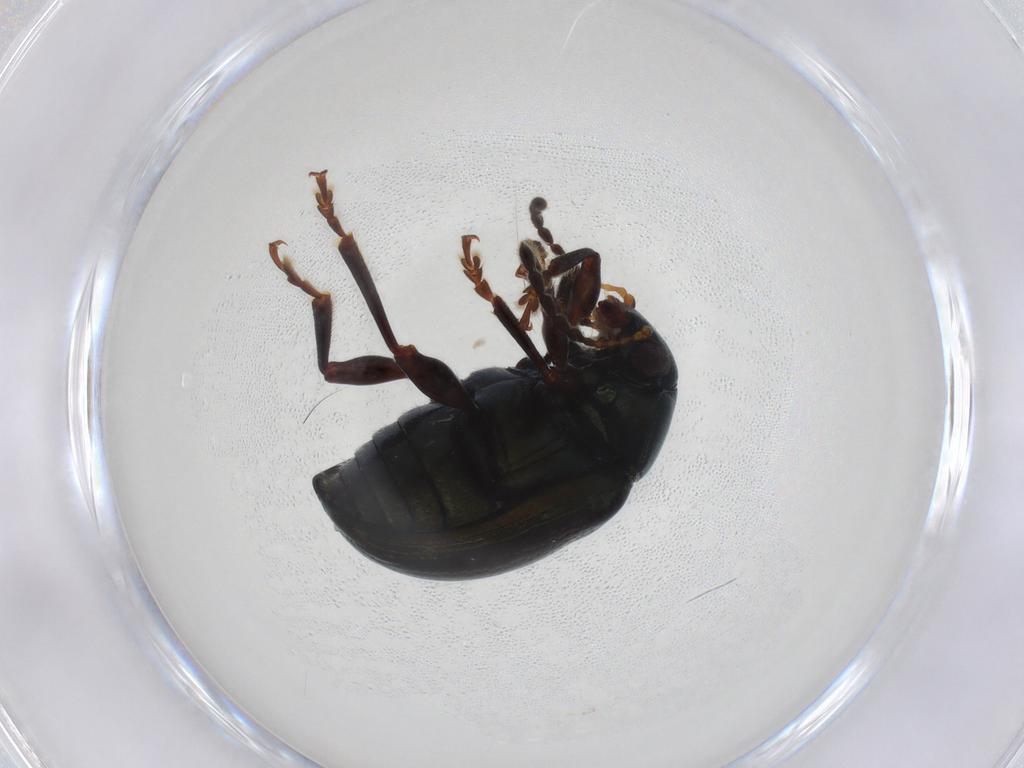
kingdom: Animalia
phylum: Arthropoda
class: Insecta
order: Coleoptera
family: Chrysomelidae
